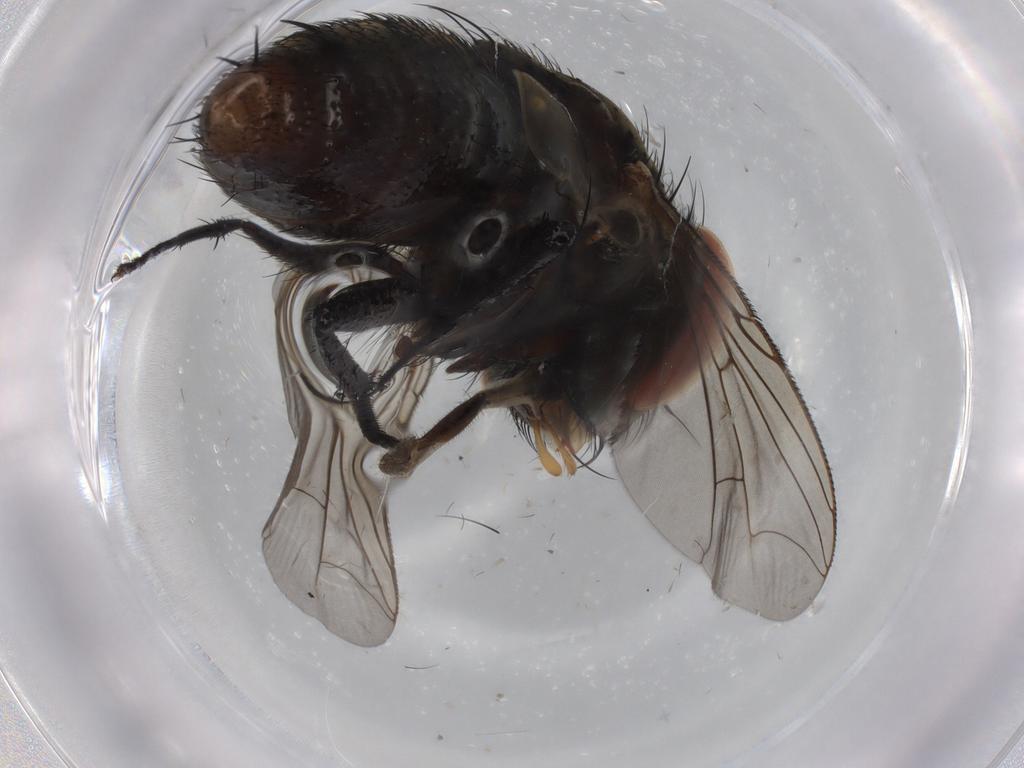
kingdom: Animalia
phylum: Arthropoda
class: Insecta
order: Diptera
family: Sarcophagidae
